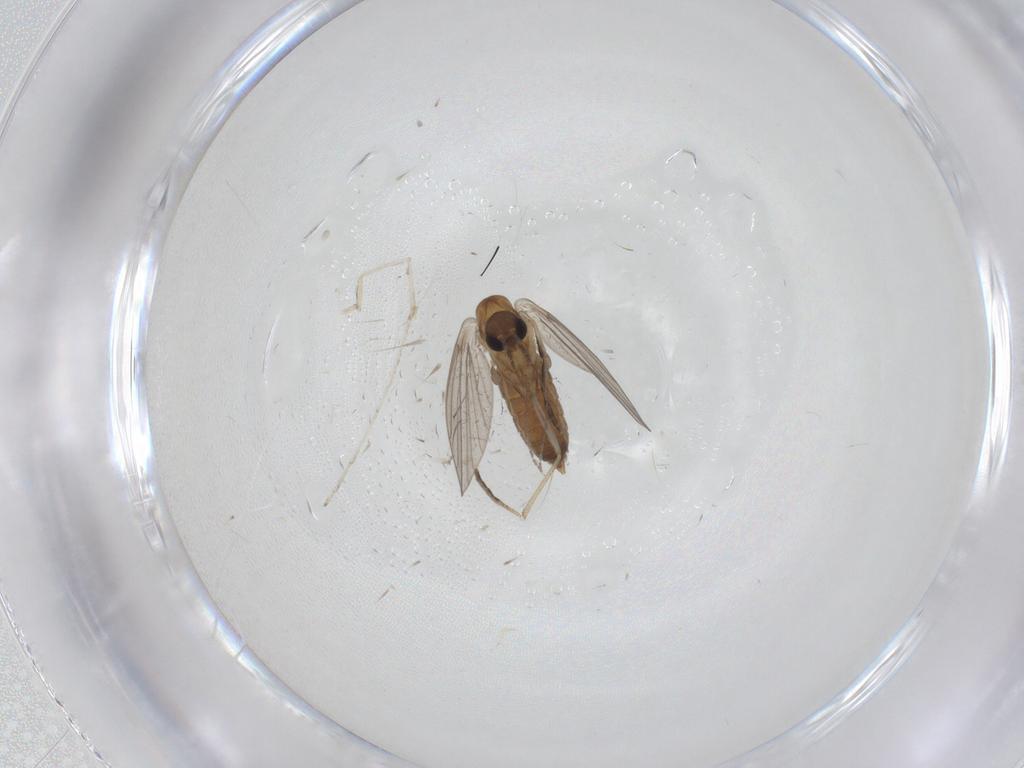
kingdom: Animalia
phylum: Arthropoda
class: Insecta
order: Diptera
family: Cecidomyiidae
